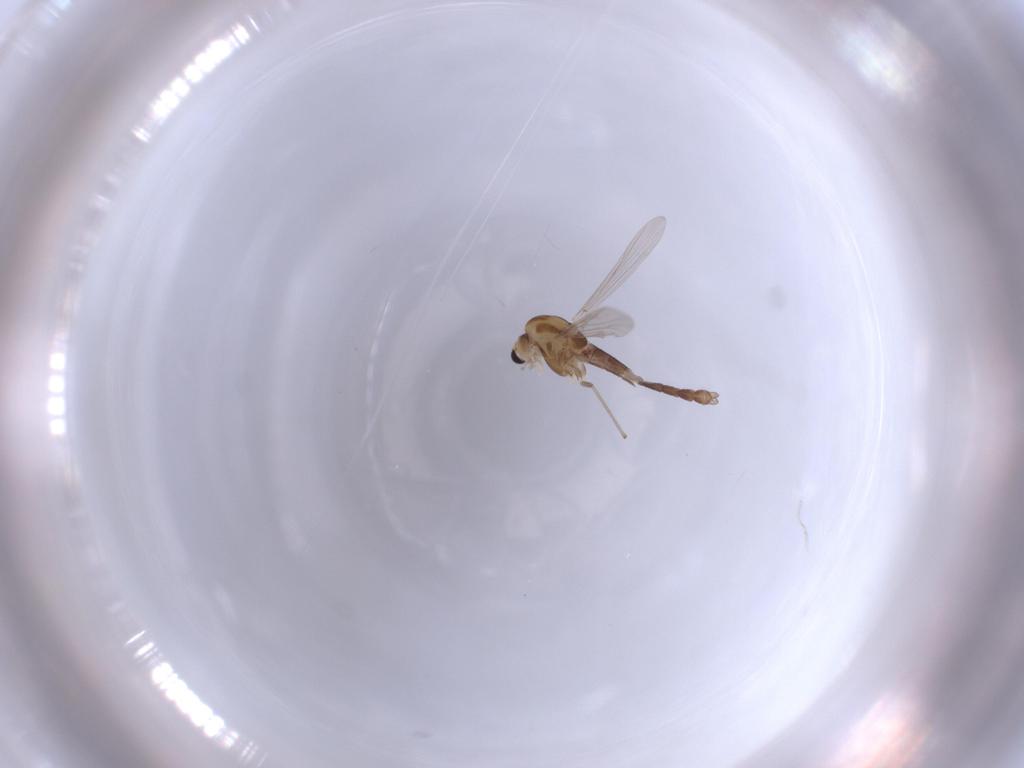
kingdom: Animalia
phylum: Arthropoda
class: Insecta
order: Diptera
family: Chironomidae
